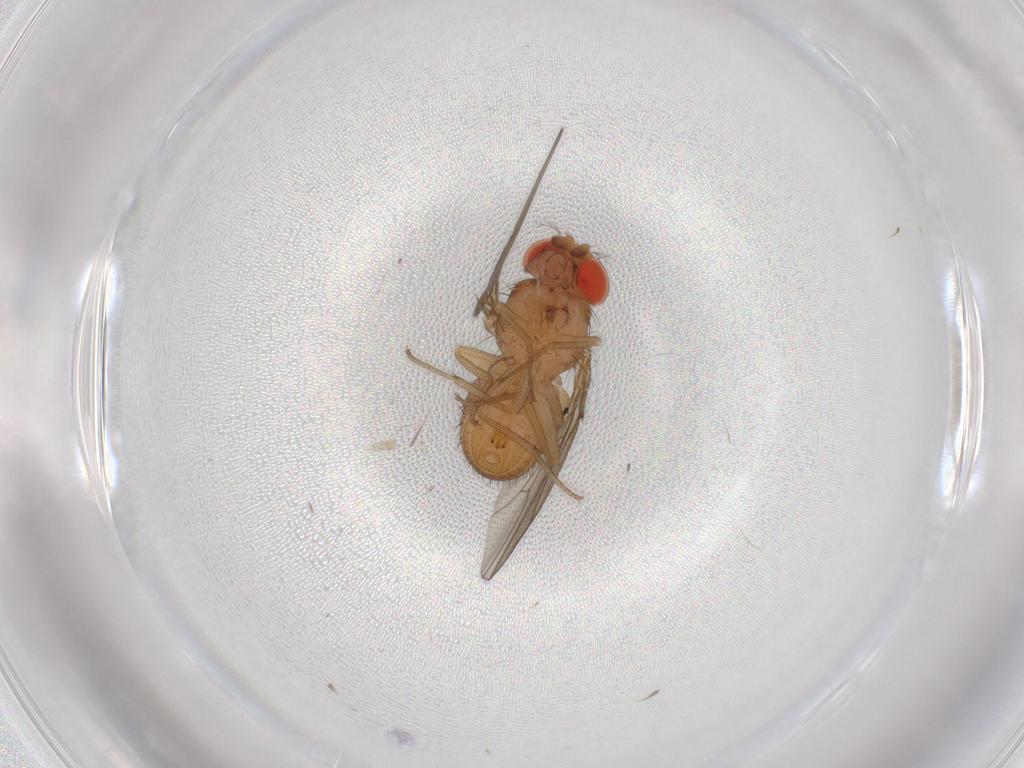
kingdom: Animalia
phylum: Arthropoda
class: Insecta
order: Diptera
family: Drosophilidae
